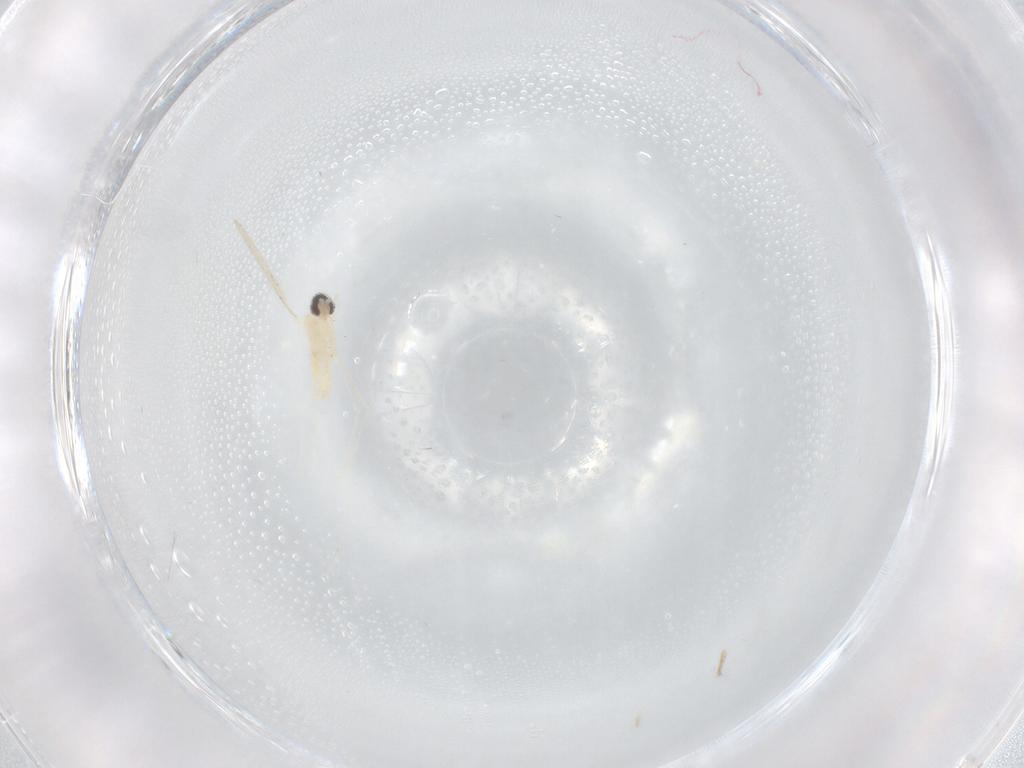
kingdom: Animalia
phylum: Arthropoda
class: Insecta
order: Diptera
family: Cecidomyiidae
